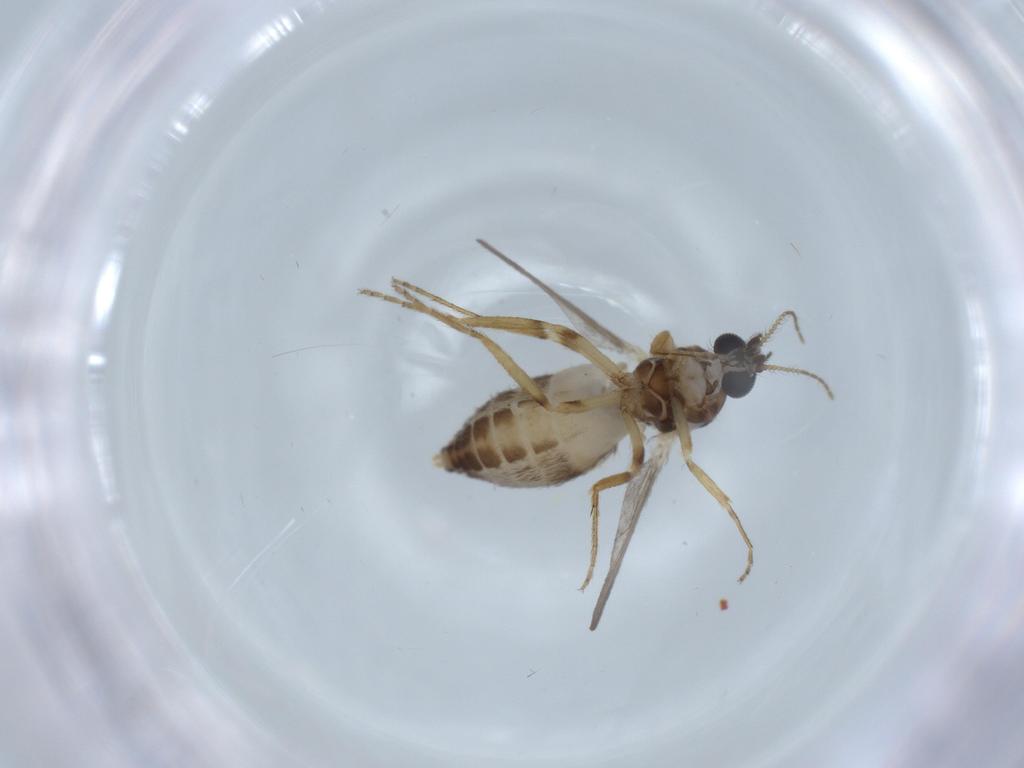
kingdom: Animalia
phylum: Arthropoda
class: Insecta
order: Diptera
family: Ceratopogonidae
